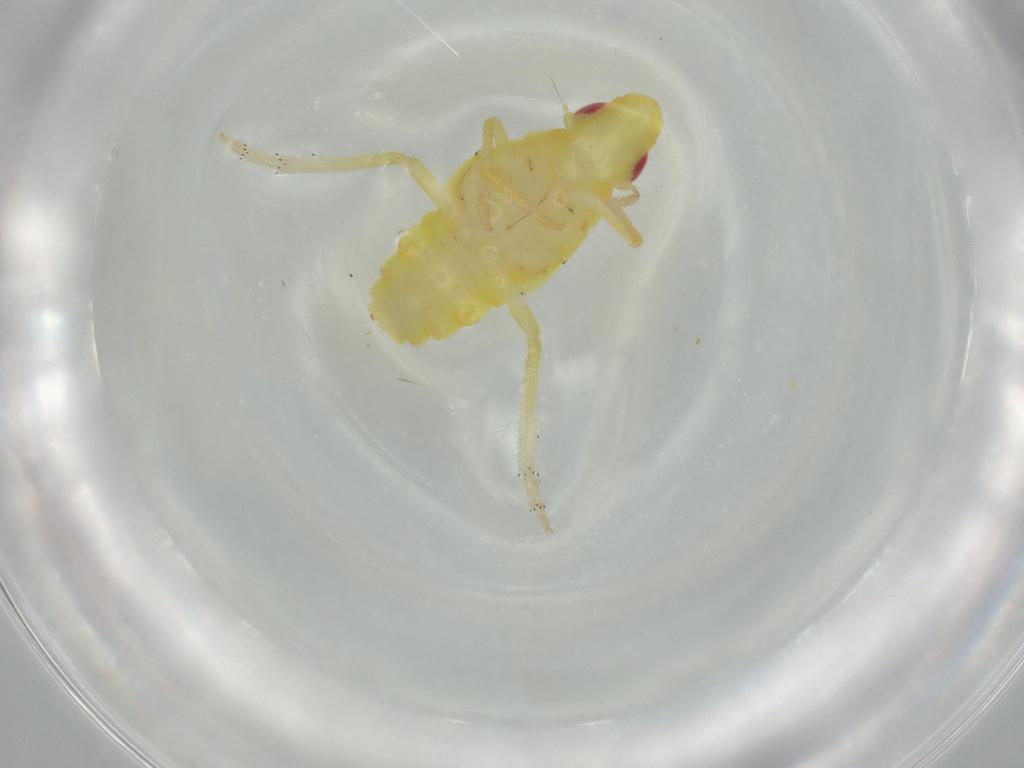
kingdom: Animalia
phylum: Arthropoda
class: Insecta
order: Hemiptera
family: Tropiduchidae
